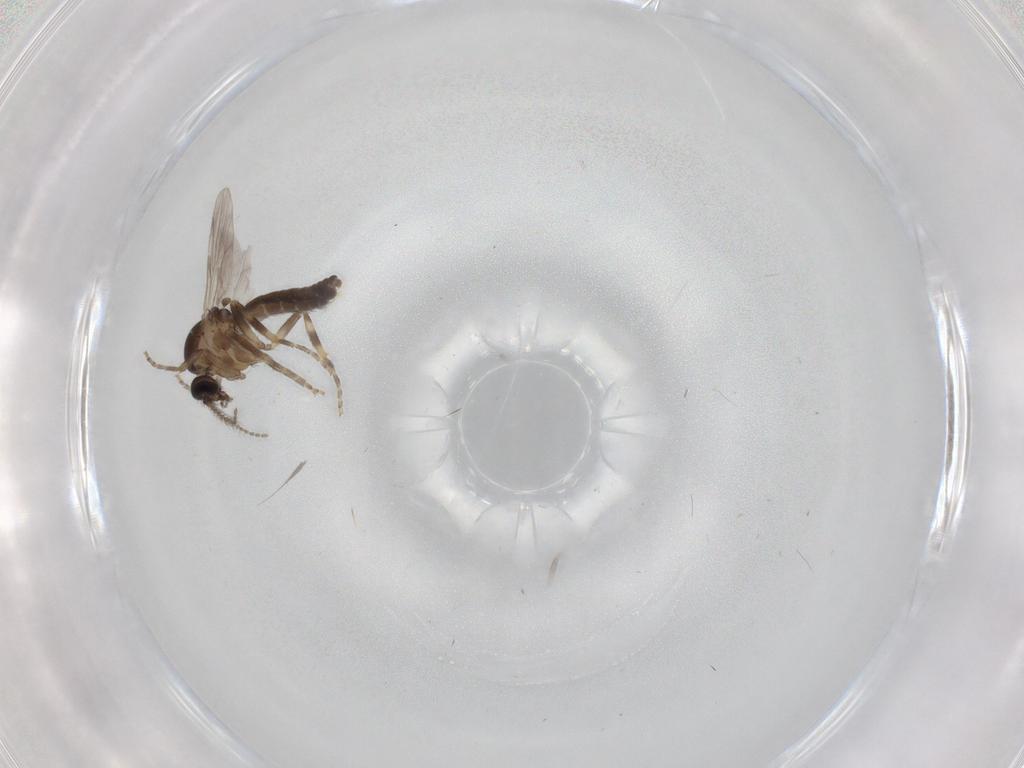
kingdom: Animalia
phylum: Arthropoda
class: Insecta
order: Diptera
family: Ceratopogonidae
